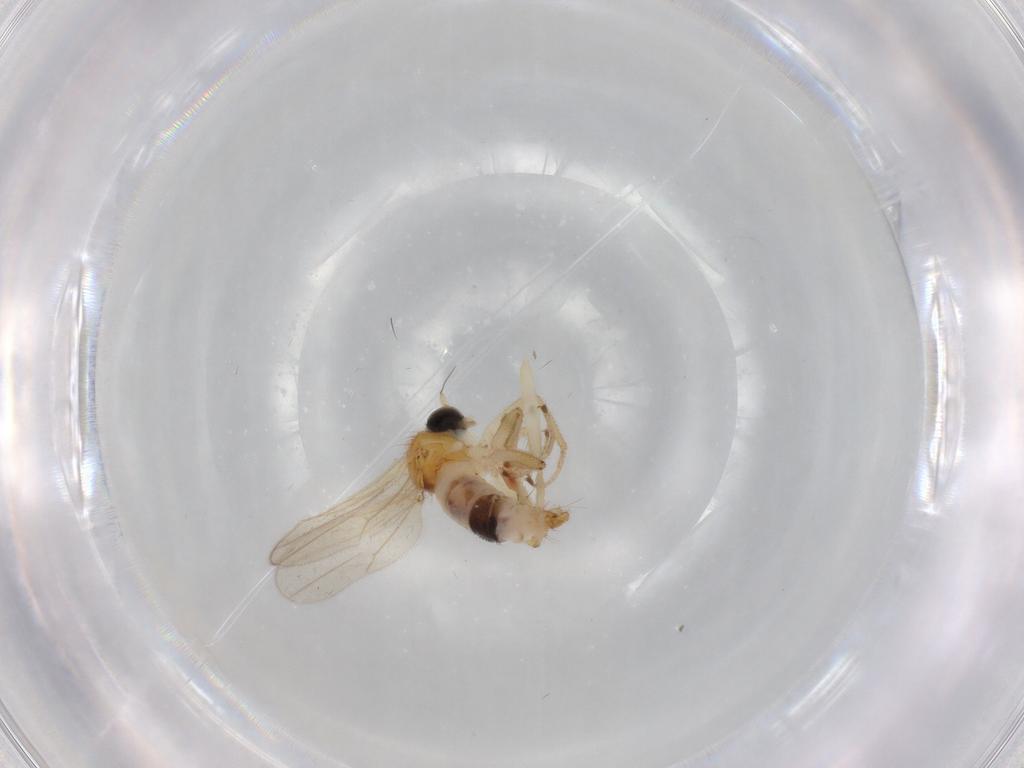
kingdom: Animalia
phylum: Arthropoda
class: Insecta
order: Diptera
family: Hybotidae
